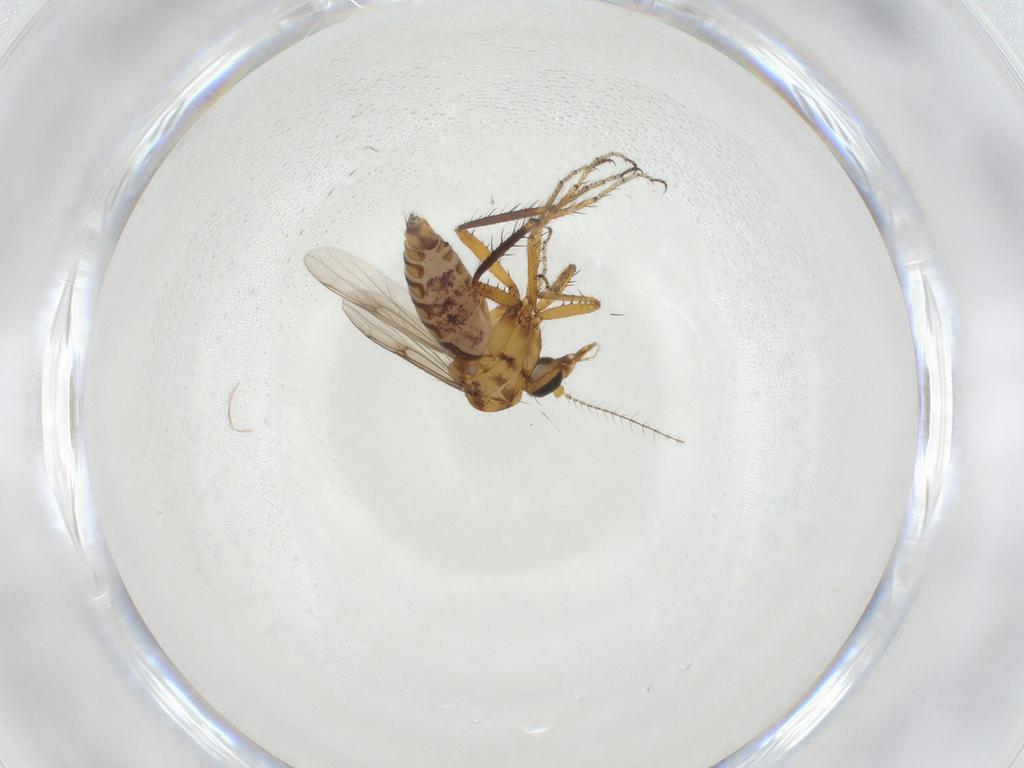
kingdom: Animalia
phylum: Arthropoda
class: Insecta
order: Diptera
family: Ceratopogonidae
